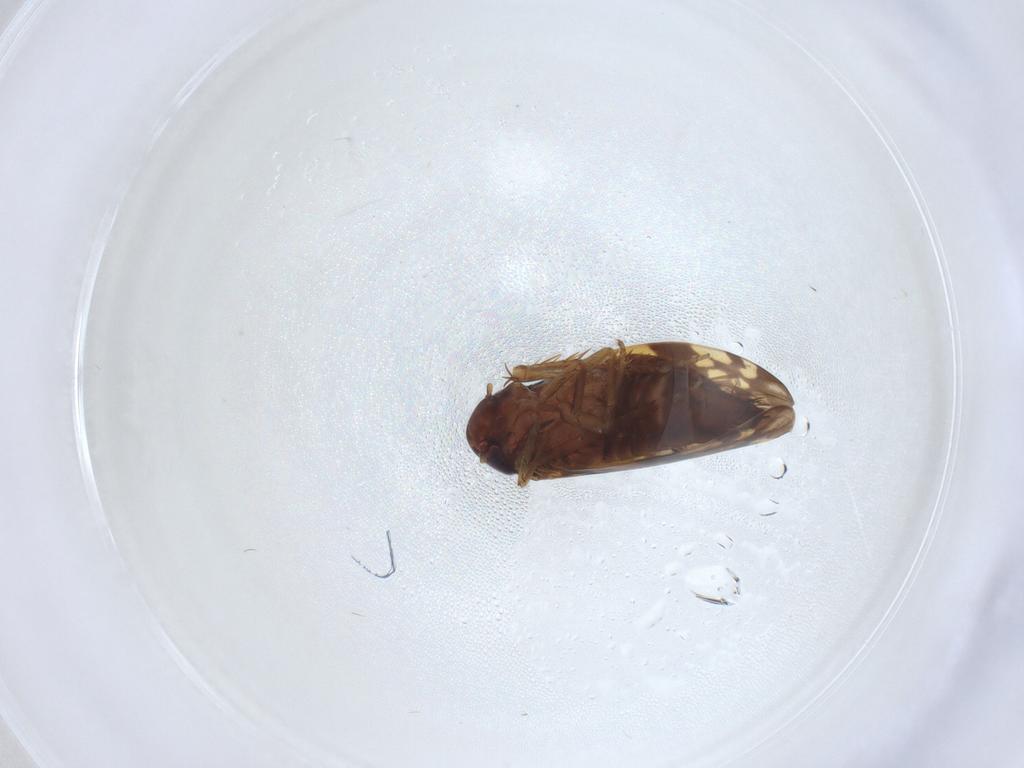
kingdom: Animalia
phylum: Arthropoda
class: Insecta
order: Hemiptera
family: Cicadellidae
